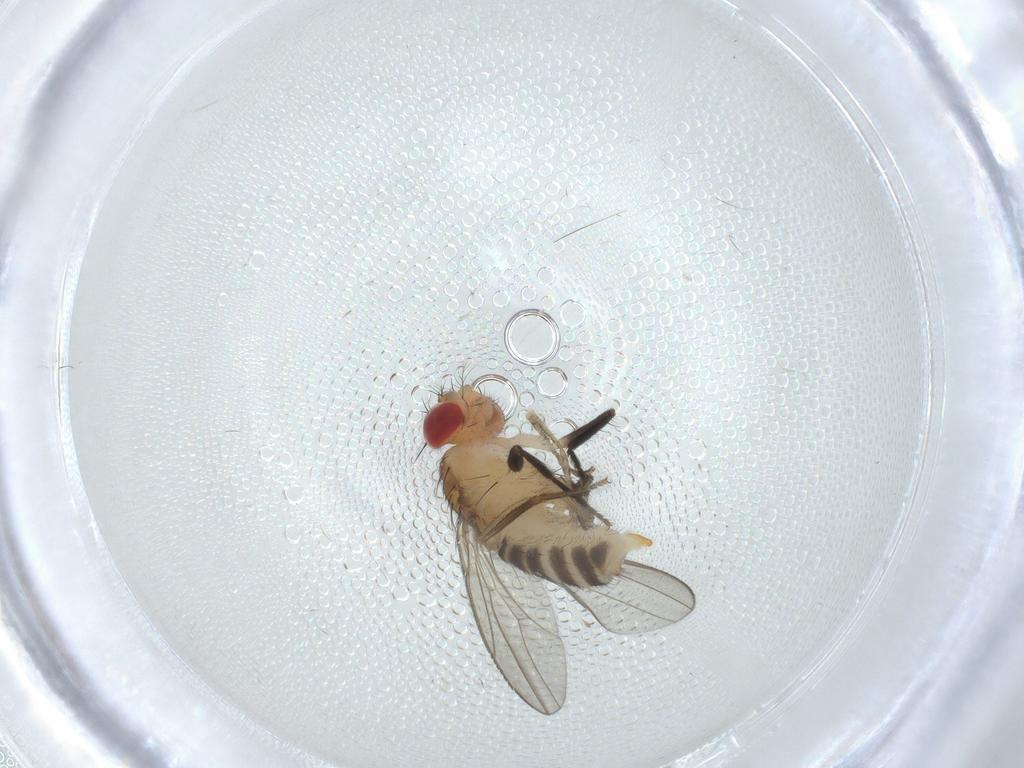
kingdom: Animalia
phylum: Arthropoda
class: Insecta
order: Diptera
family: Drosophilidae
